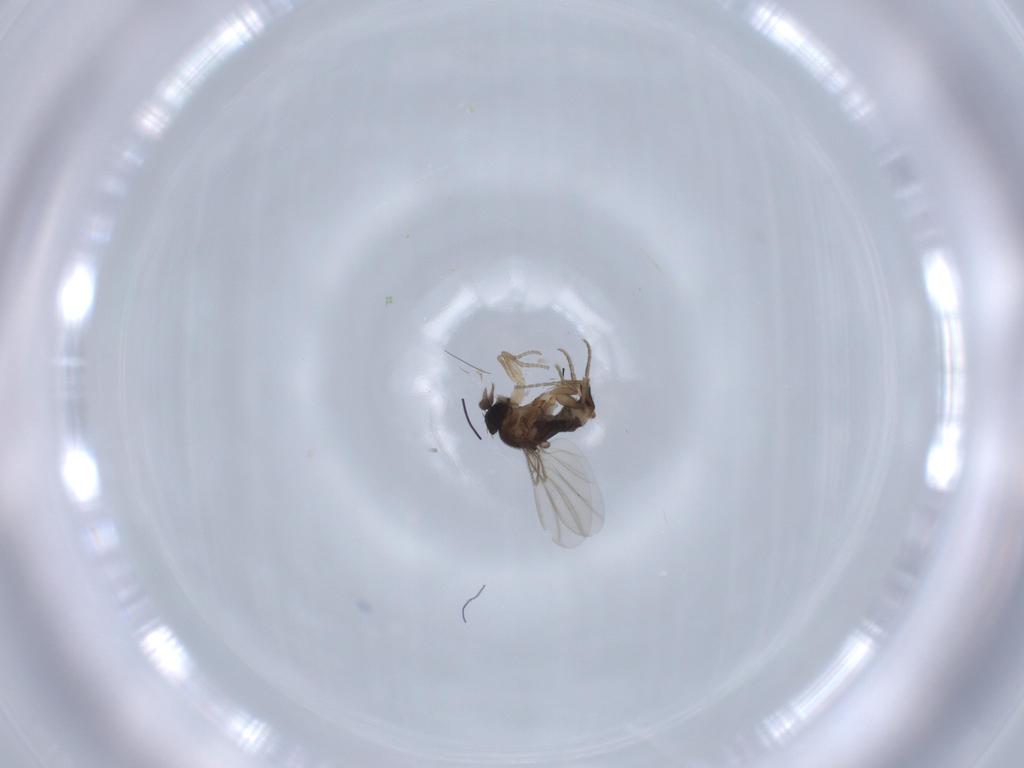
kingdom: Animalia
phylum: Arthropoda
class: Insecta
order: Diptera
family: Phoridae
